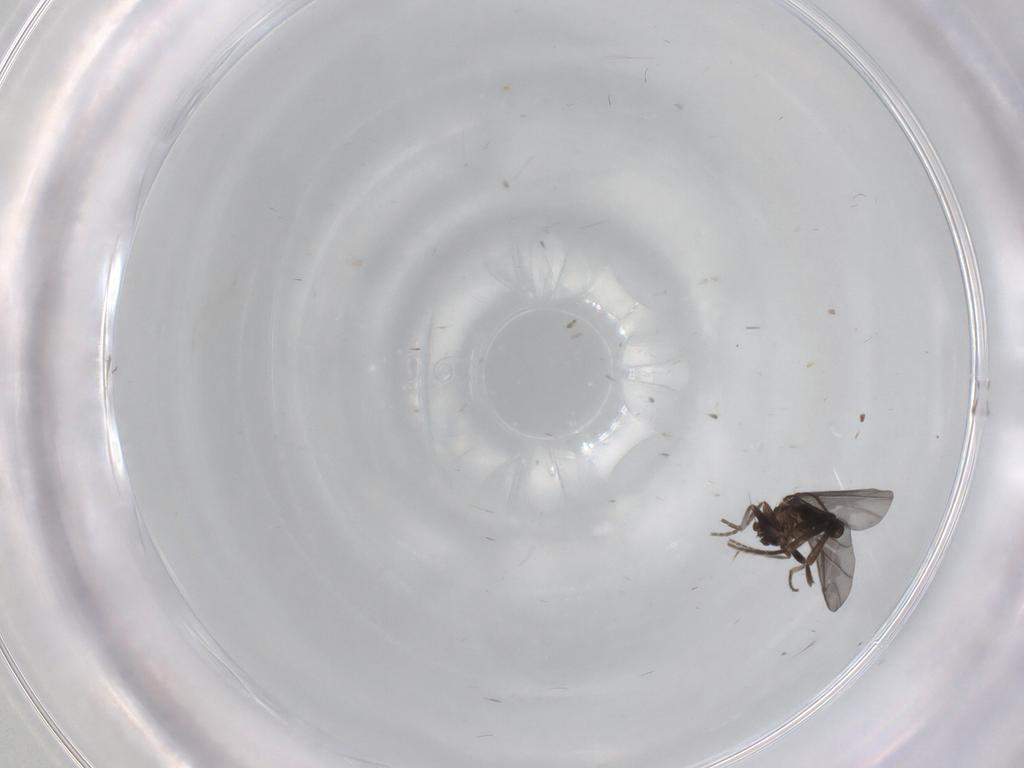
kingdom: Animalia
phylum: Arthropoda
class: Insecta
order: Diptera
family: Phoridae
